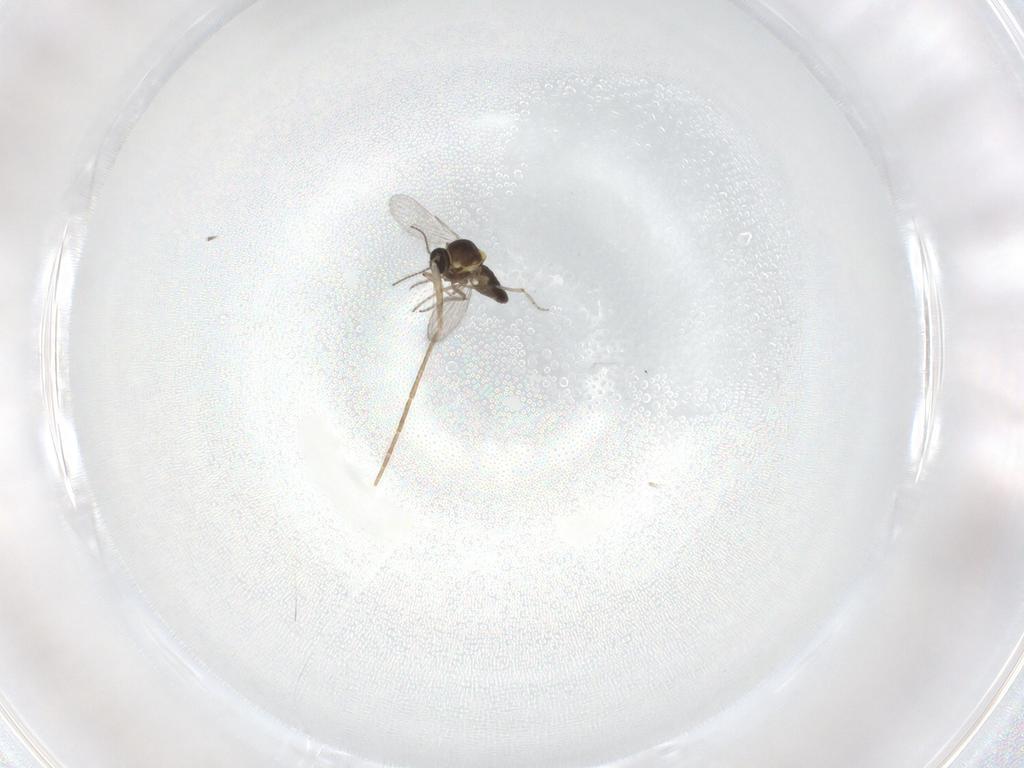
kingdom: Animalia
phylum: Arthropoda
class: Insecta
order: Diptera
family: Ceratopogonidae
